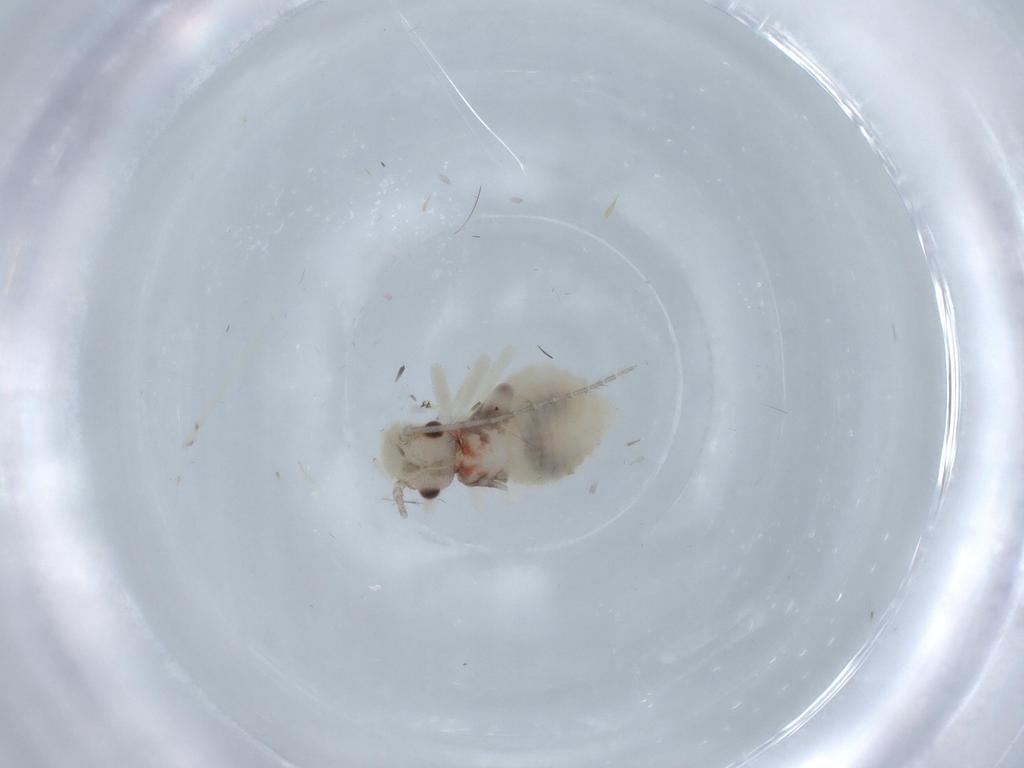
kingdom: Animalia
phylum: Arthropoda
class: Insecta
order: Psocodea
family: Amphipsocidae
